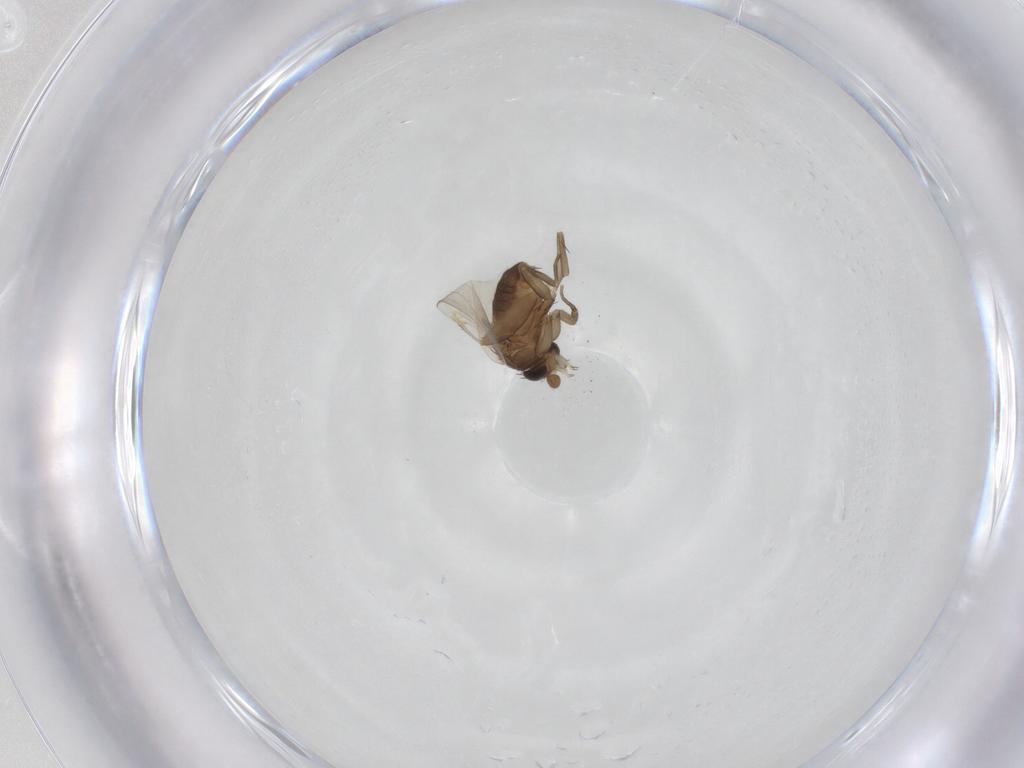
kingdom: Animalia
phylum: Arthropoda
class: Insecta
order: Diptera
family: Phoridae
